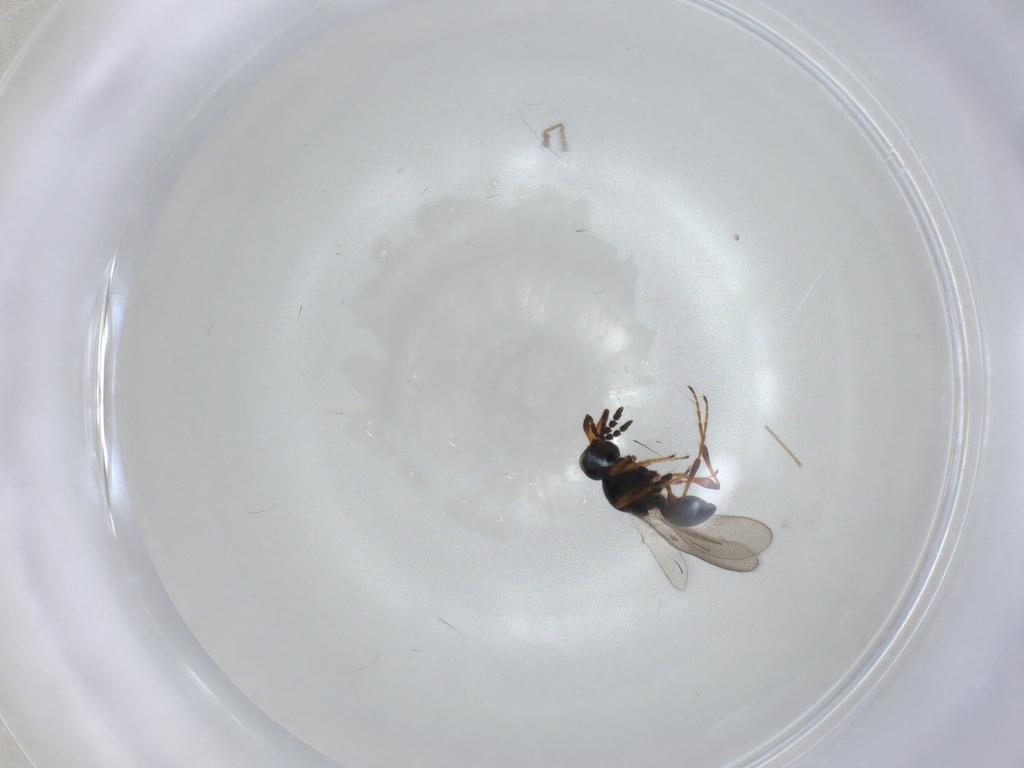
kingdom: Animalia
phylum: Arthropoda
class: Insecta
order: Hymenoptera
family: Platygastridae
